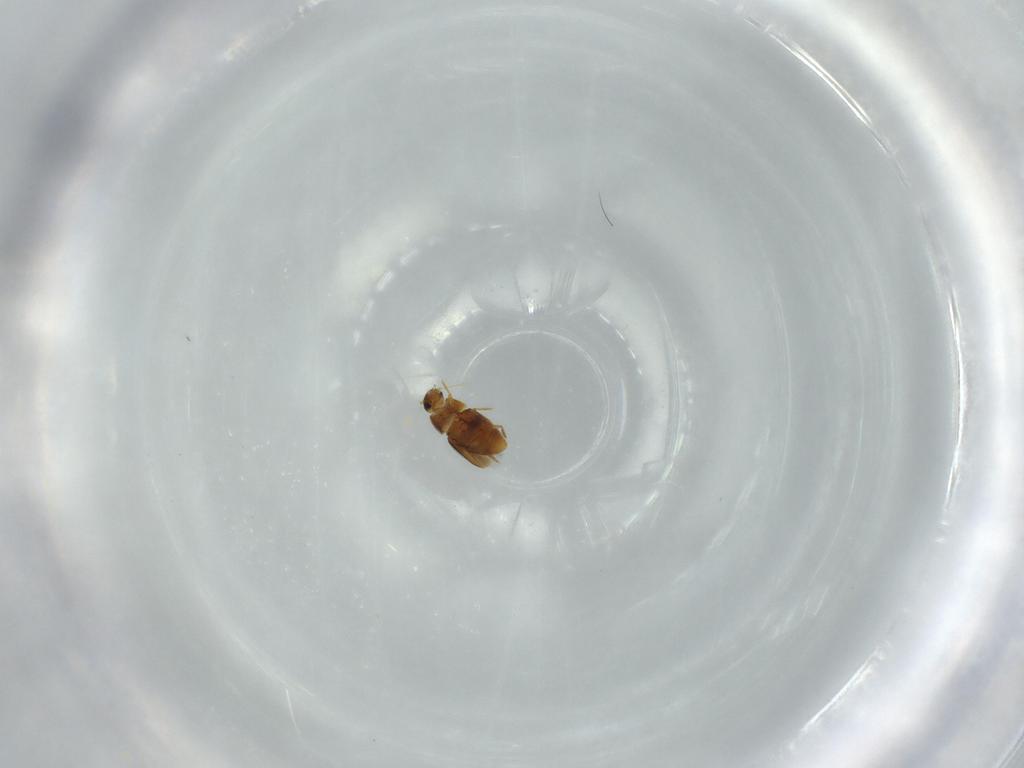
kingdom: Animalia
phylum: Arthropoda
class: Insecta
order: Coleoptera
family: Ptiliidae
